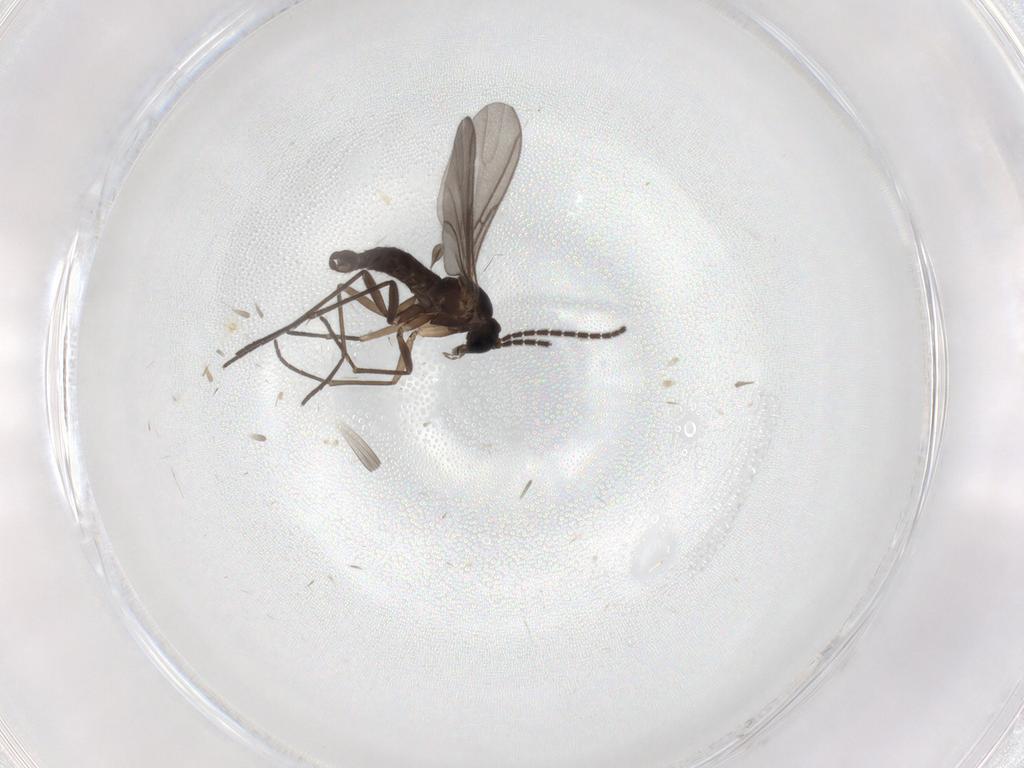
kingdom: Animalia
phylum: Arthropoda
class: Insecta
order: Diptera
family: Sciaridae
